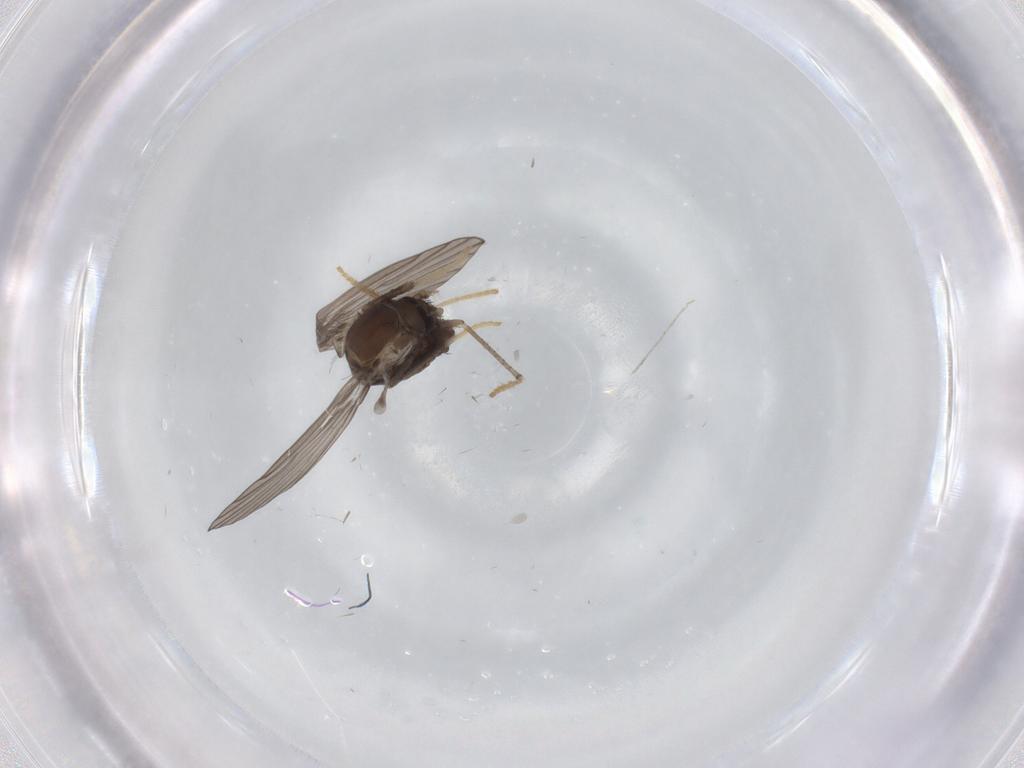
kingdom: Animalia
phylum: Arthropoda
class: Insecta
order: Diptera
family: Psychodidae
